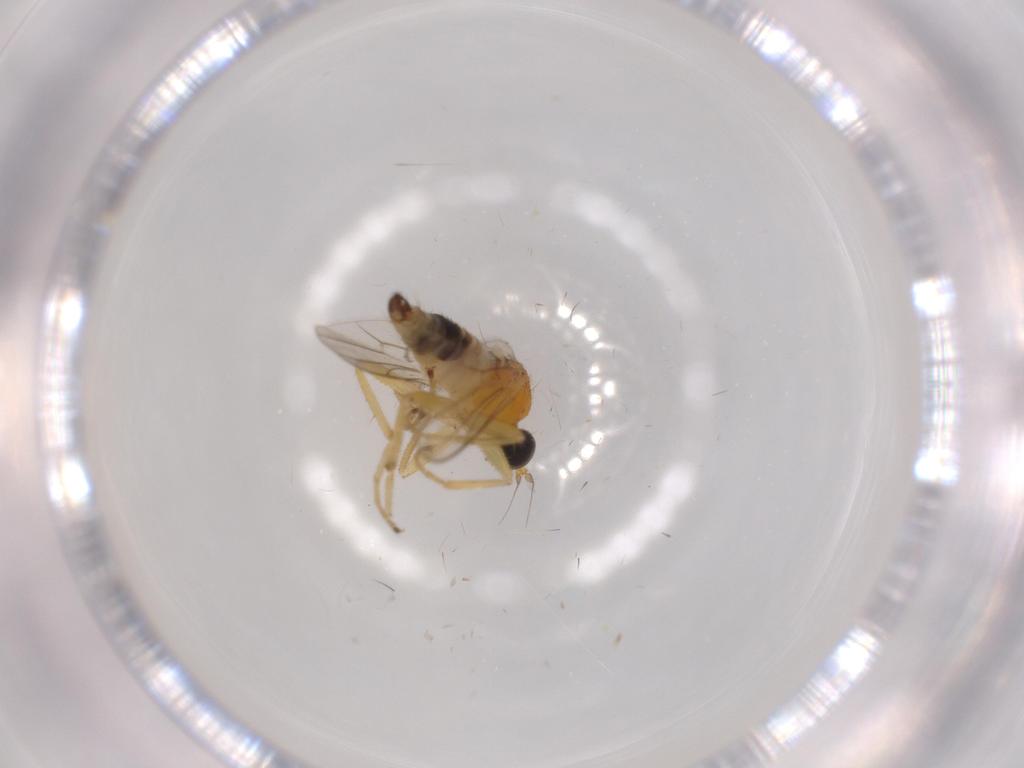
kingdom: Animalia
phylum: Arthropoda
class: Insecta
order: Diptera
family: Hybotidae
